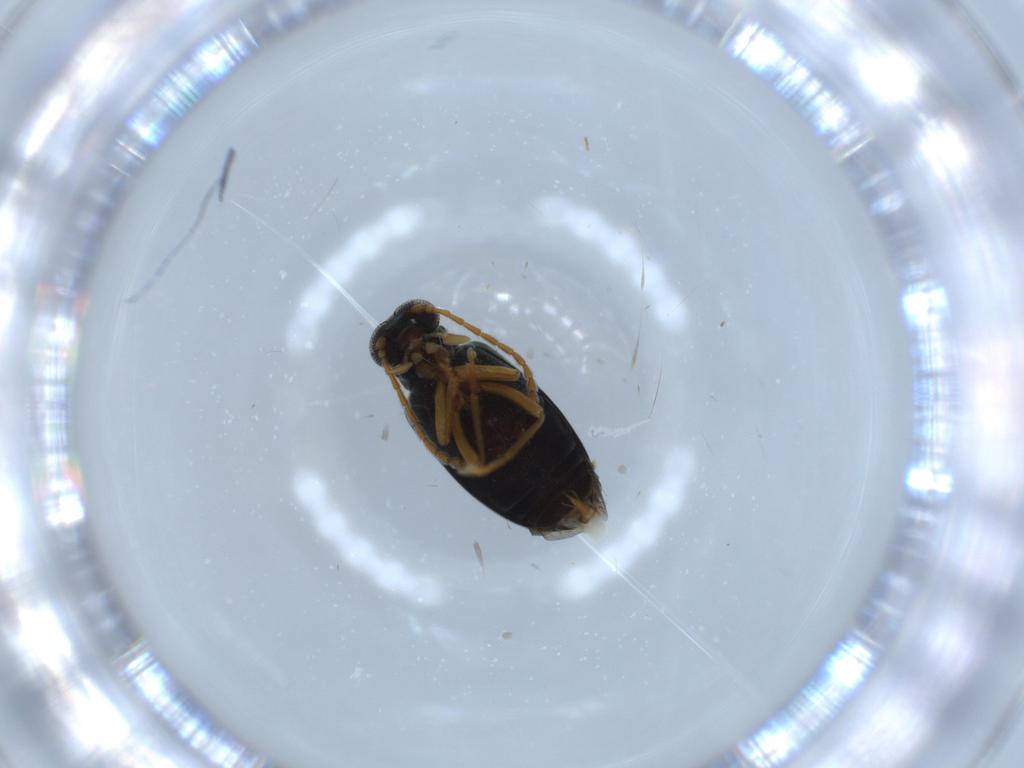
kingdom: Animalia
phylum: Arthropoda
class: Insecta
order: Coleoptera
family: Aderidae
